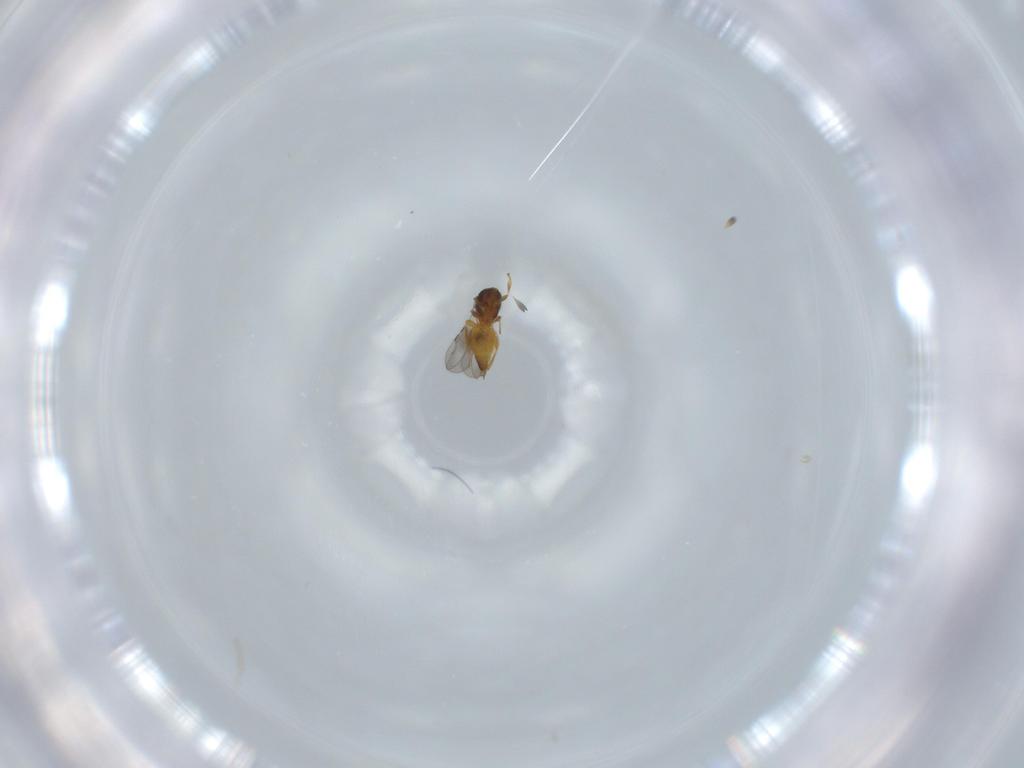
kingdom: Animalia
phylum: Arthropoda
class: Insecta
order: Hymenoptera
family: Ceraphronidae
